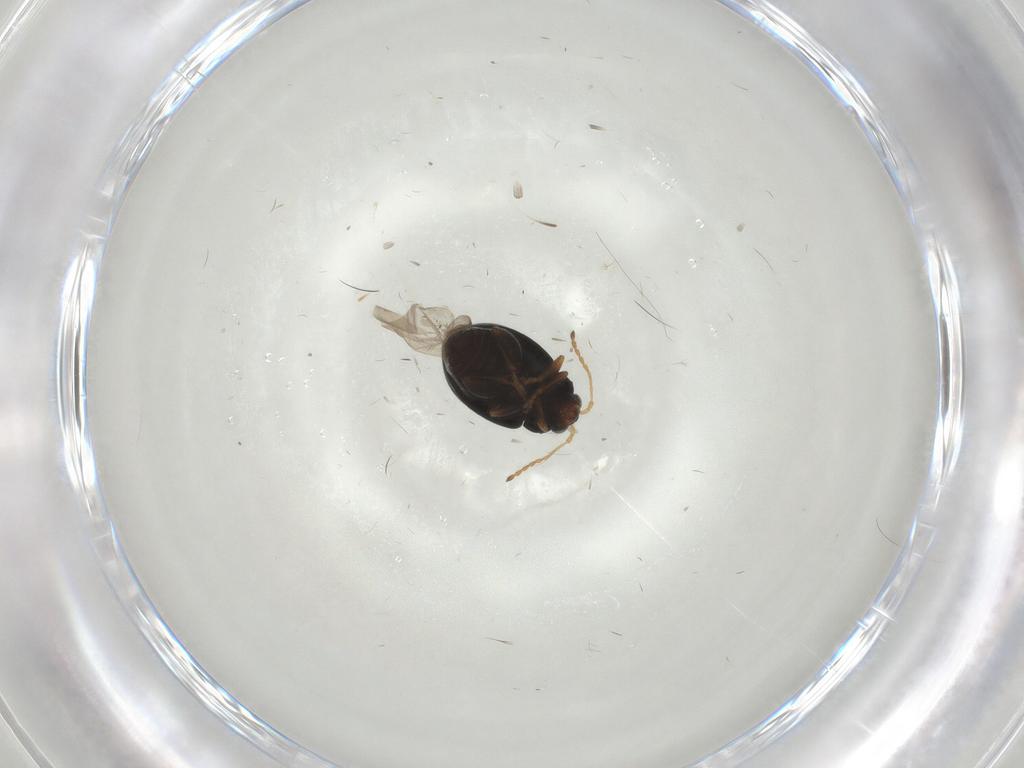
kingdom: Animalia
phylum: Arthropoda
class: Insecta
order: Coleoptera
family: Chrysomelidae
